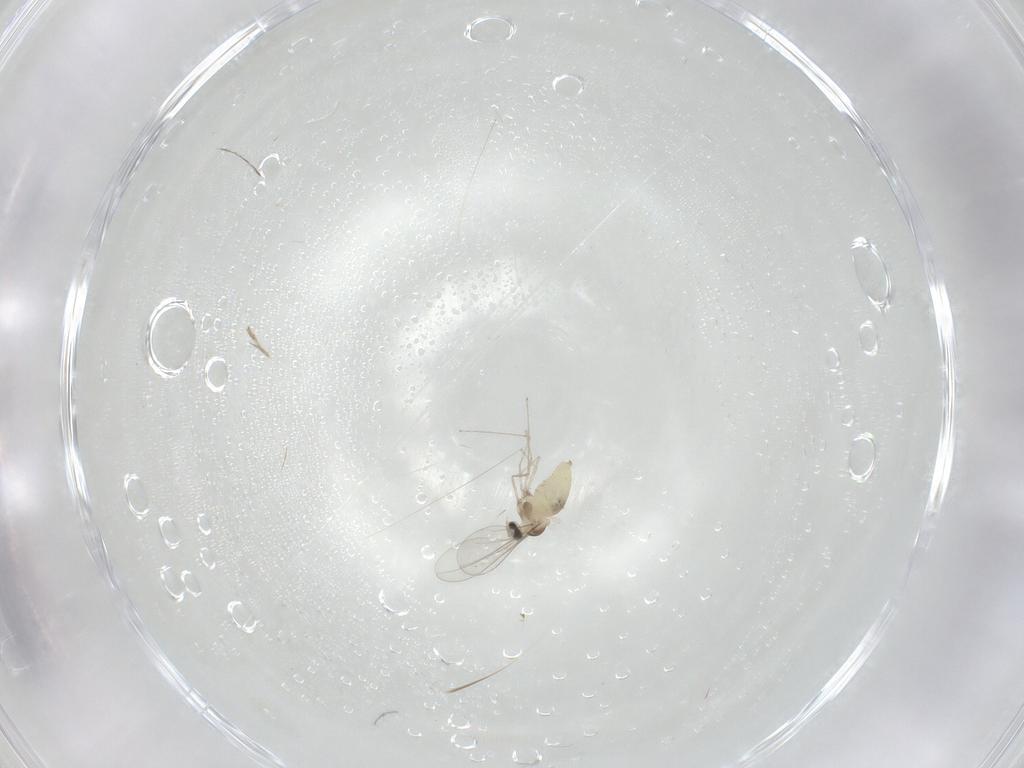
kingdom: Animalia
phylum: Arthropoda
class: Insecta
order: Diptera
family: Cecidomyiidae
